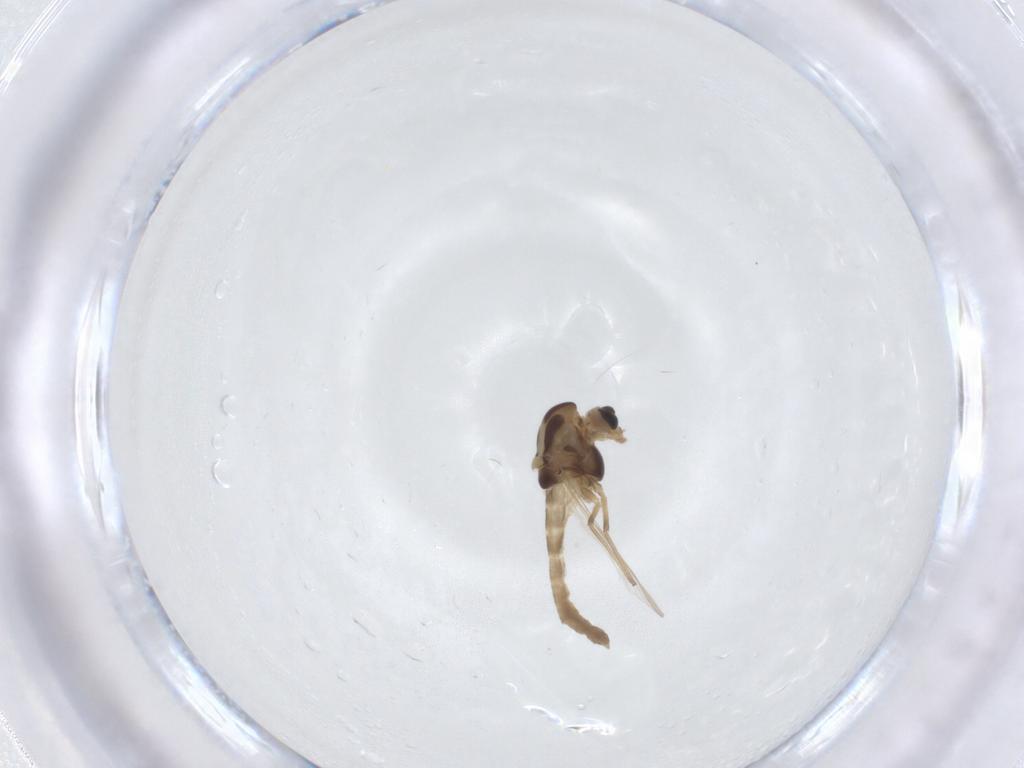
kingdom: Animalia
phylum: Arthropoda
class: Insecta
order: Diptera
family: Chironomidae
